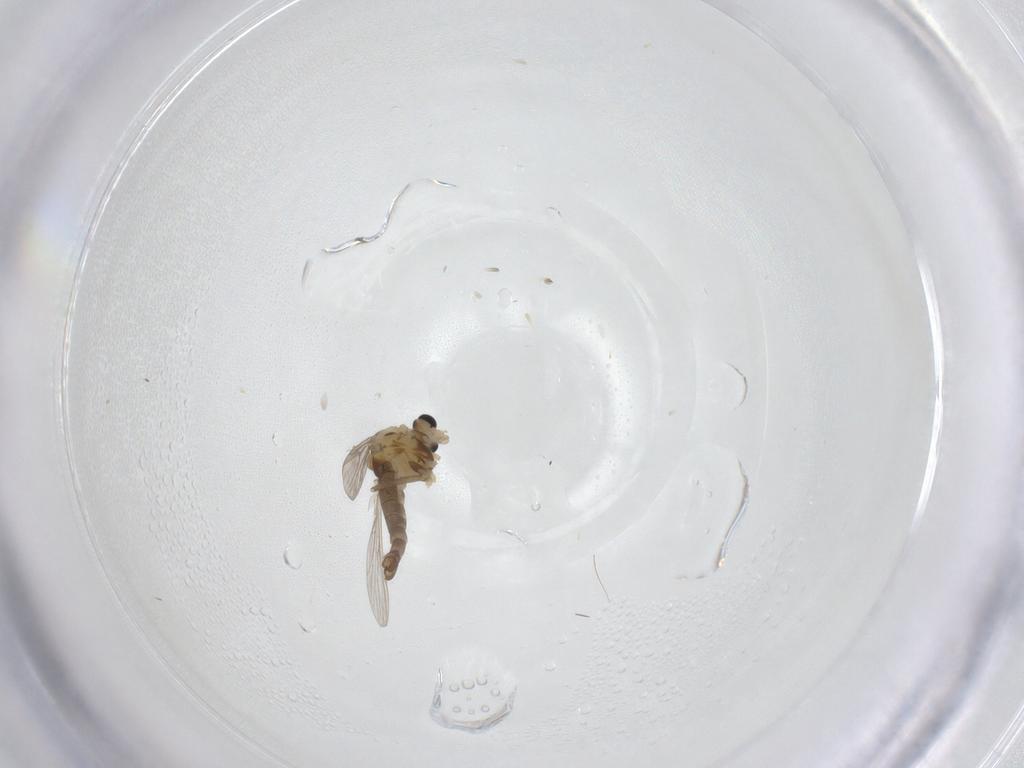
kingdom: Animalia
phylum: Arthropoda
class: Insecta
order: Diptera
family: Chironomidae
